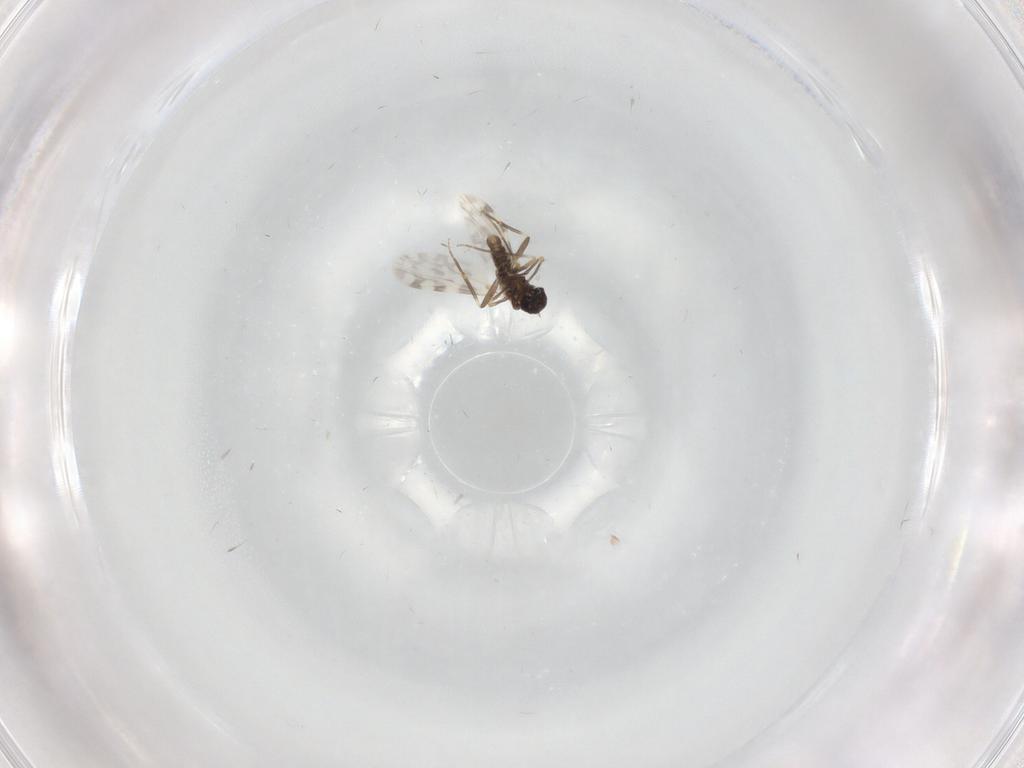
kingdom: Animalia
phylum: Arthropoda
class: Insecta
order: Diptera
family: Ceratopogonidae
